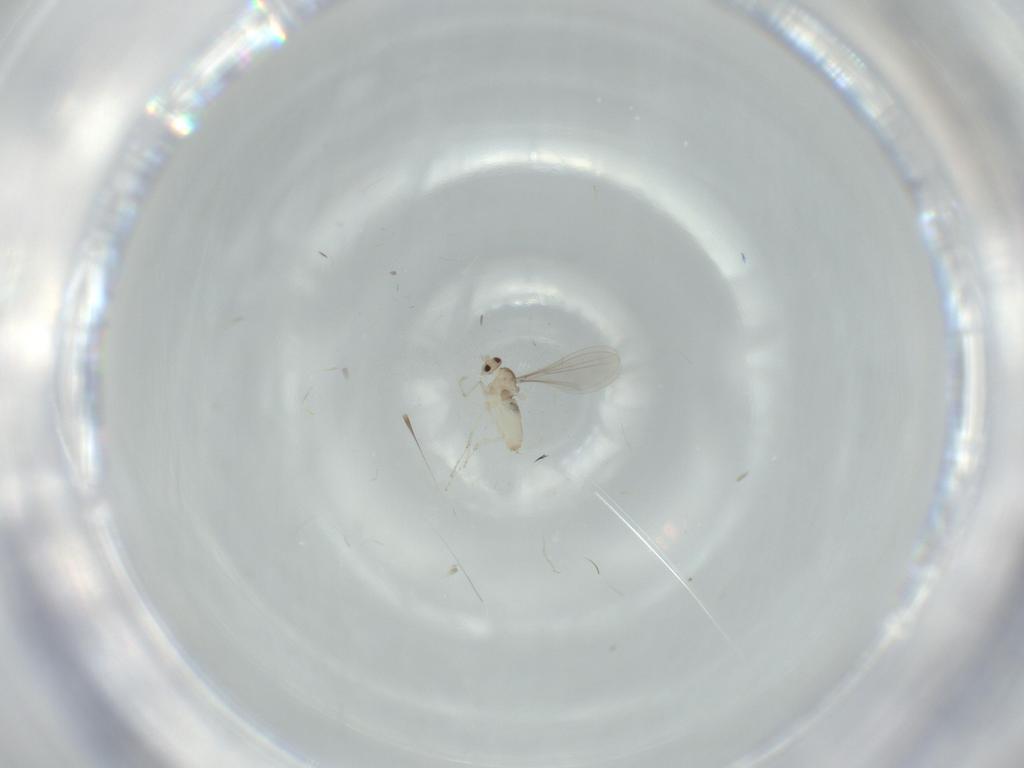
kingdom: Animalia
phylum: Arthropoda
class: Insecta
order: Diptera
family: Cecidomyiidae
